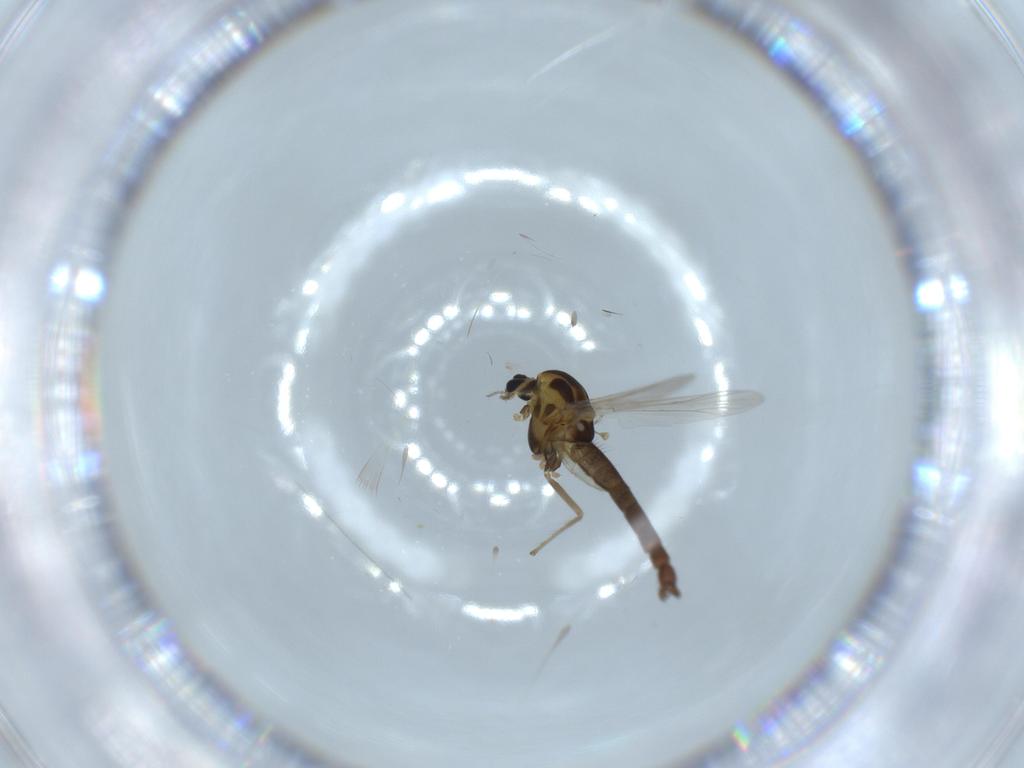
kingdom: Animalia
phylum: Arthropoda
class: Insecta
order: Diptera
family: Chironomidae
